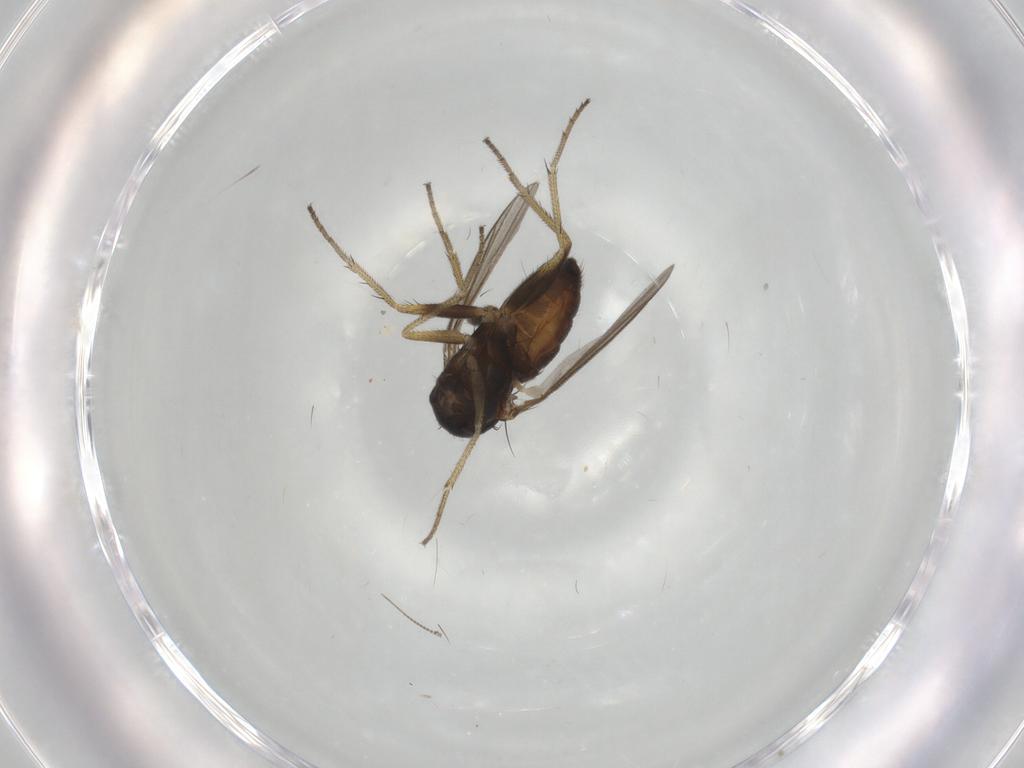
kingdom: Animalia
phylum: Arthropoda
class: Insecta
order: Diptera
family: Dolichopodidae
